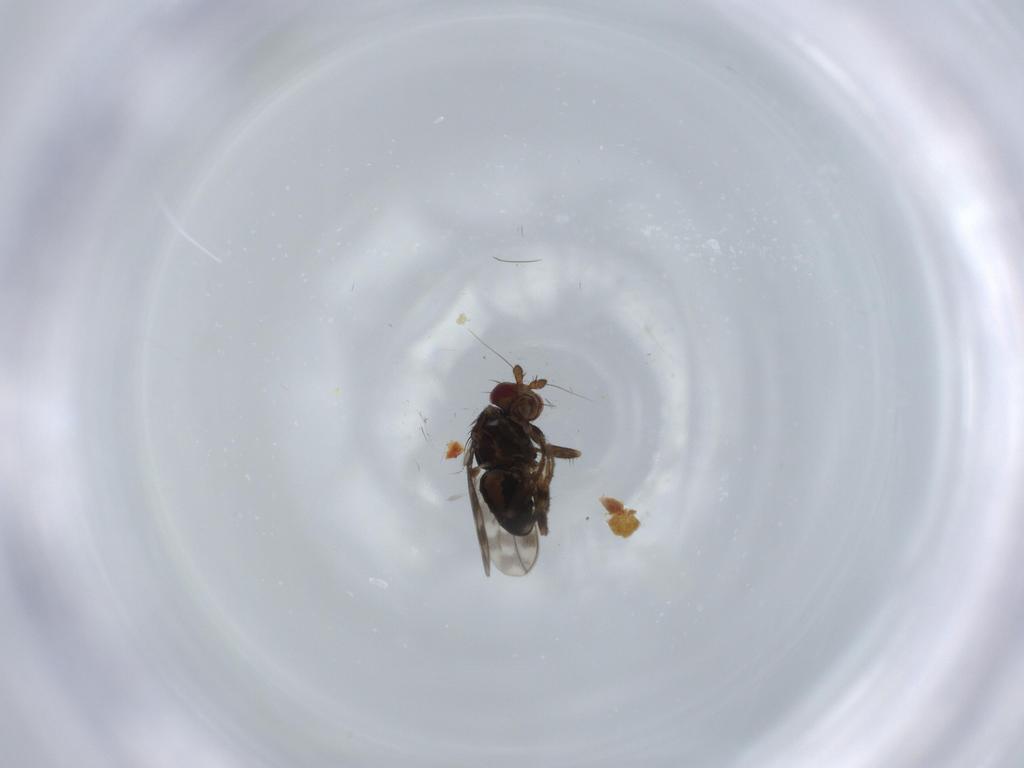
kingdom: Animalia
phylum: Arthropoda
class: Insecta
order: Diptera
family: Sphaeroceridae
